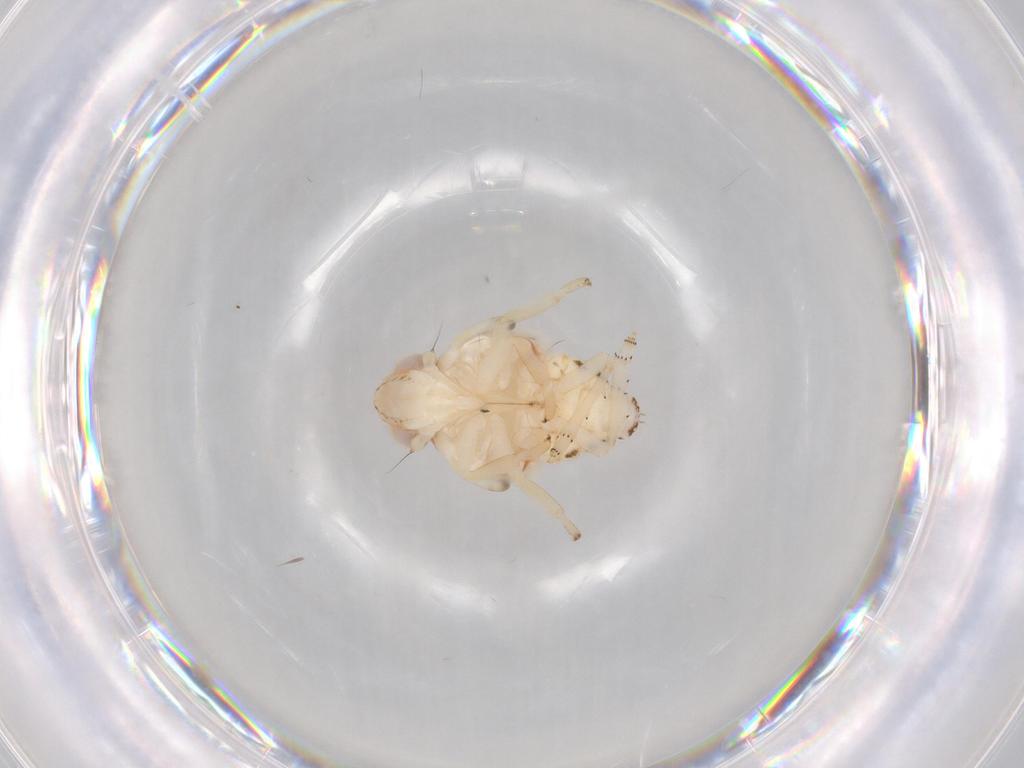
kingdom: Animalia
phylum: Arthropoda
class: Insecta
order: Hemiptera
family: Nogodinidae
